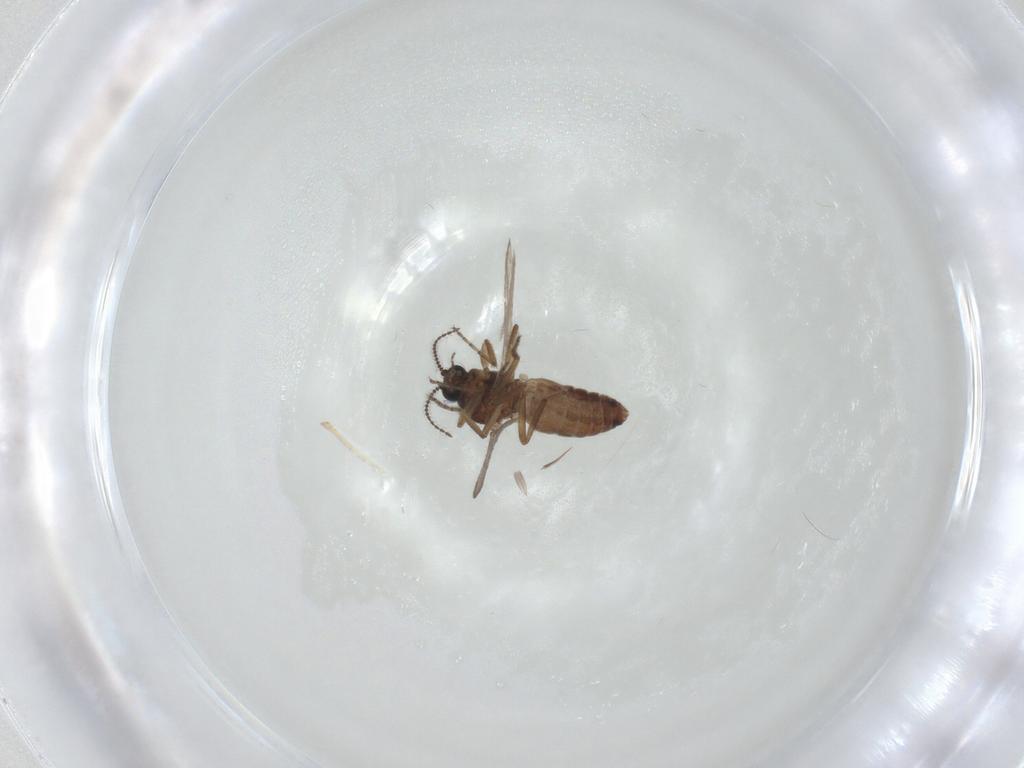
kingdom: Animalia
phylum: Arthropoda
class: Insecta
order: Diptera
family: Ceratopogonidae
